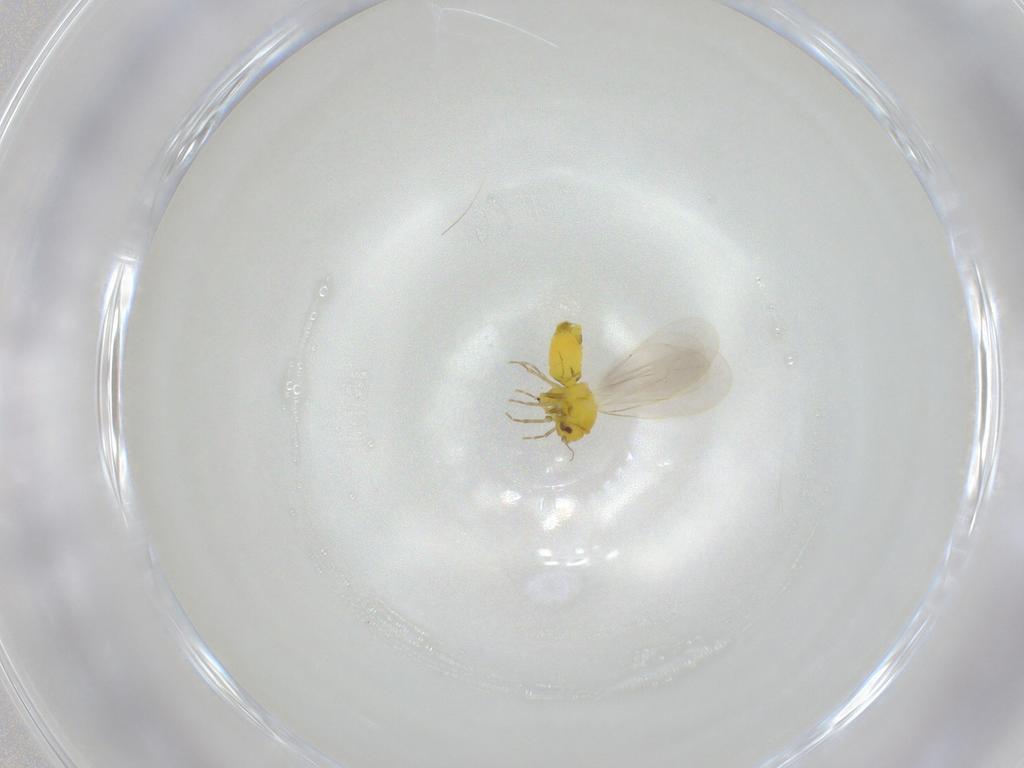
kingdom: Animalia
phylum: Arthropoda
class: Insecta
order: Hemiptera
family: Aleyrodidae
